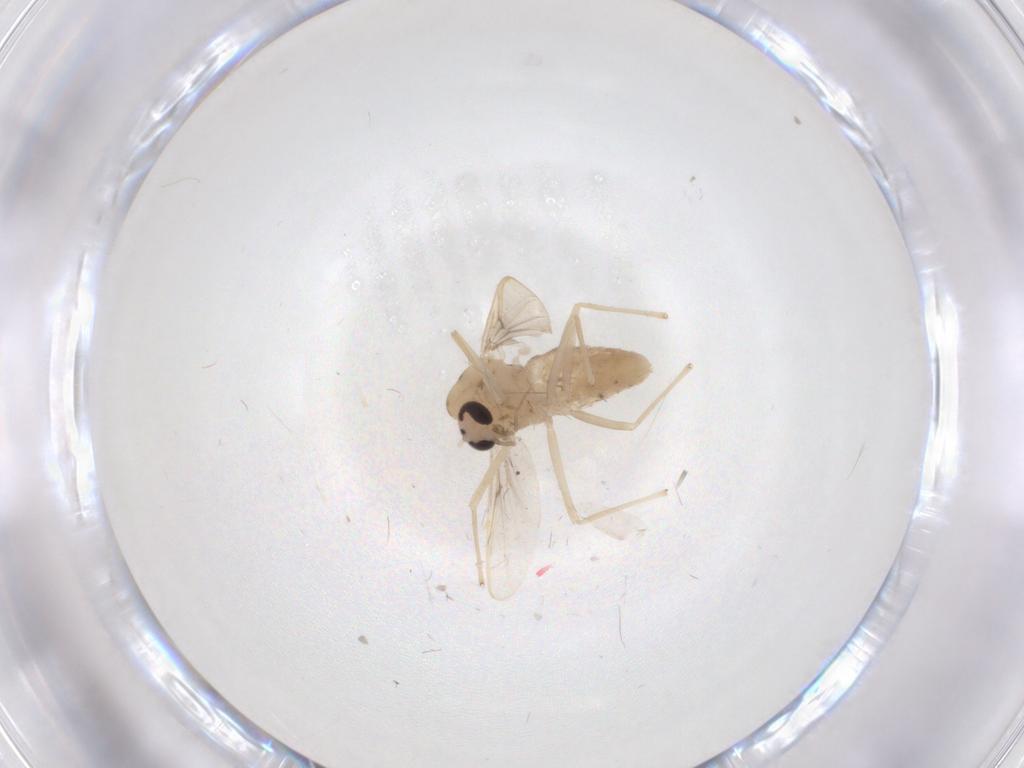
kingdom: Animalia
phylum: Arthropoda
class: Insecta
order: Diptera
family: Chironomidae
